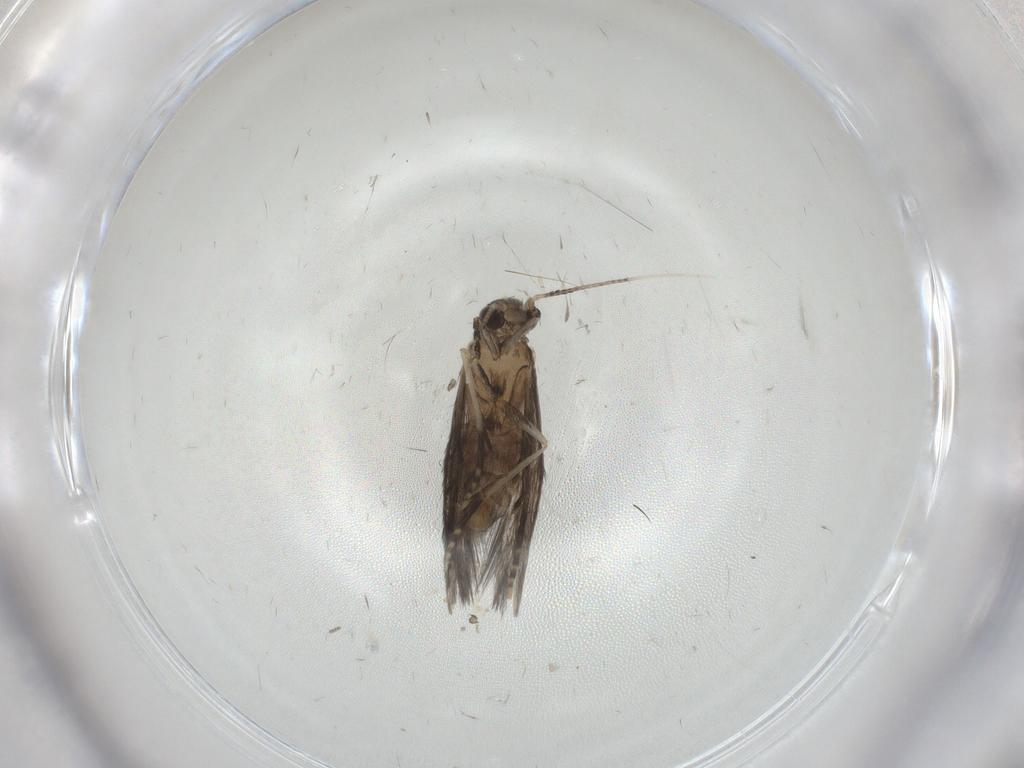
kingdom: Animalia
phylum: Arthropoda
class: Insecta
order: Trichoptera
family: Hydroptilidae
